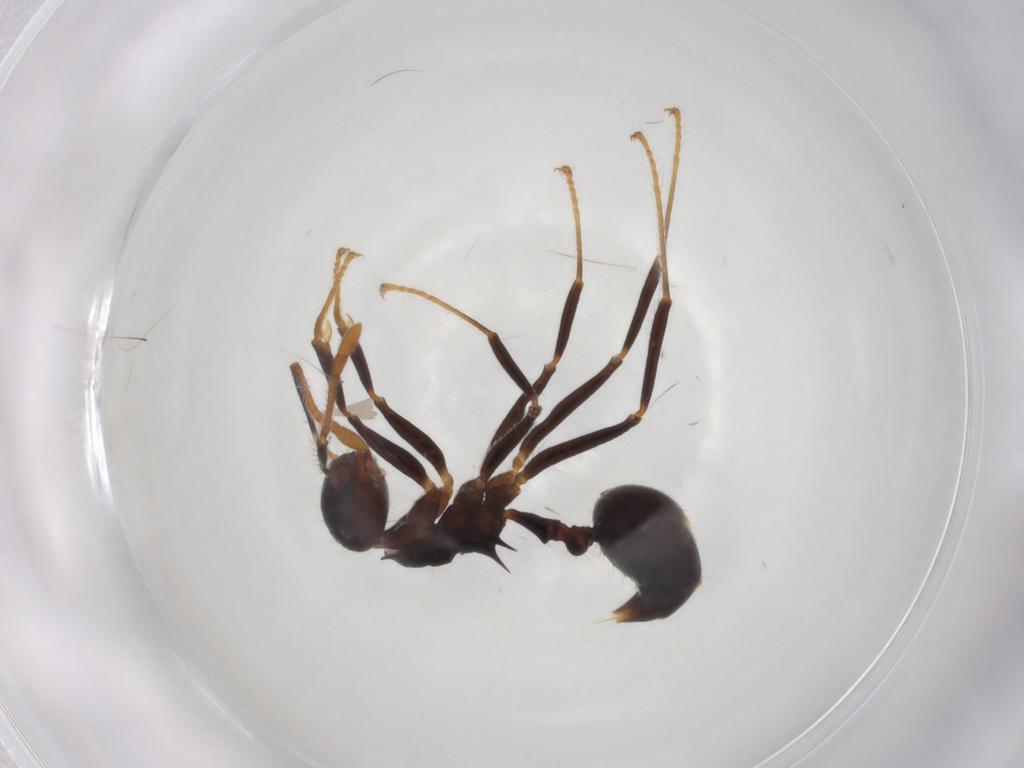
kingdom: Animalia
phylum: Arthropoda
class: Insecta
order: Hymenoptera
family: Formicidae
